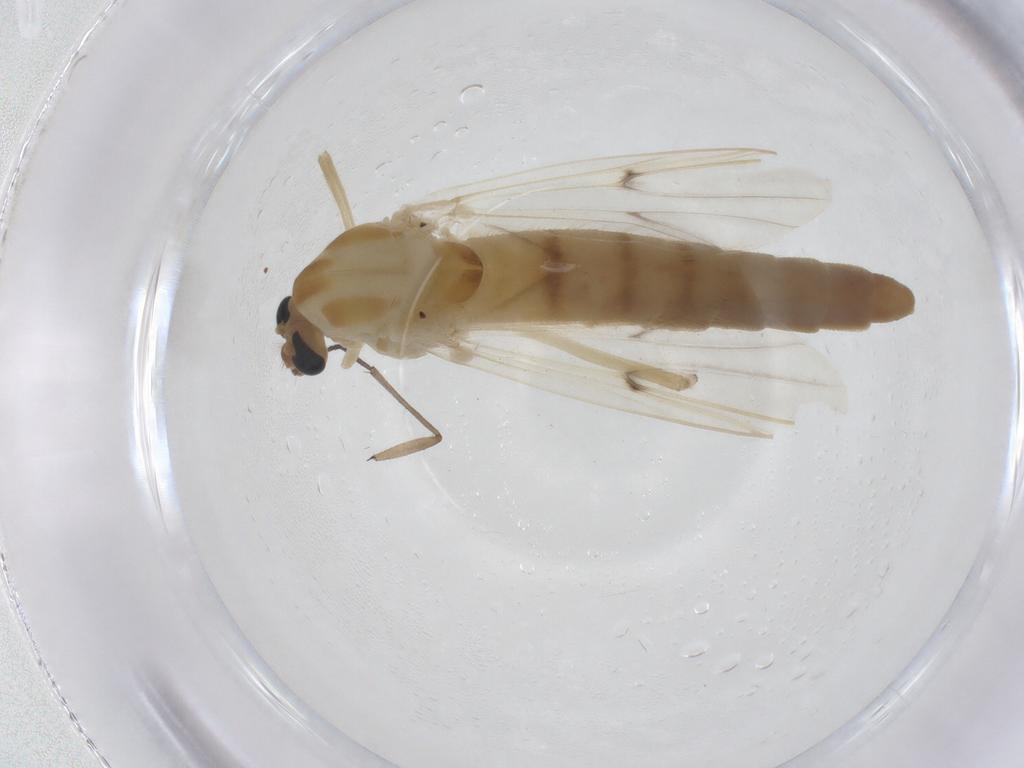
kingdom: Animalia
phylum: Arthropoda
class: Insecta
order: Diptera
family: Chironomidae
